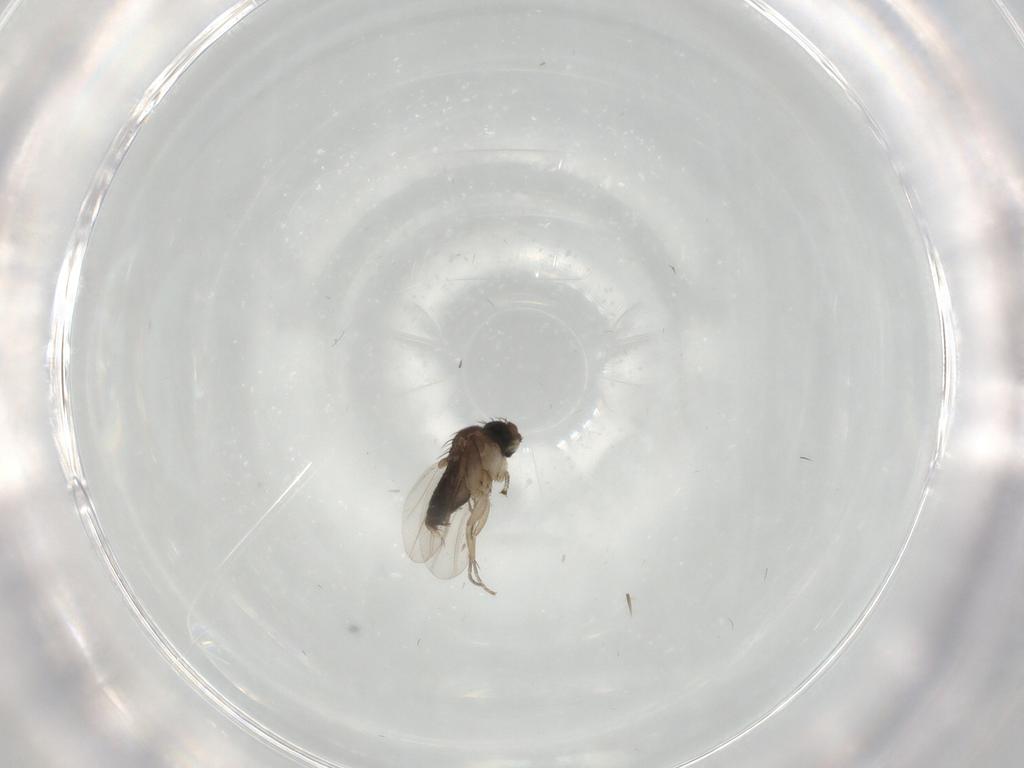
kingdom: Animalia
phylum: Arthropoda
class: Insecta
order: Diptera
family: Phoridae
